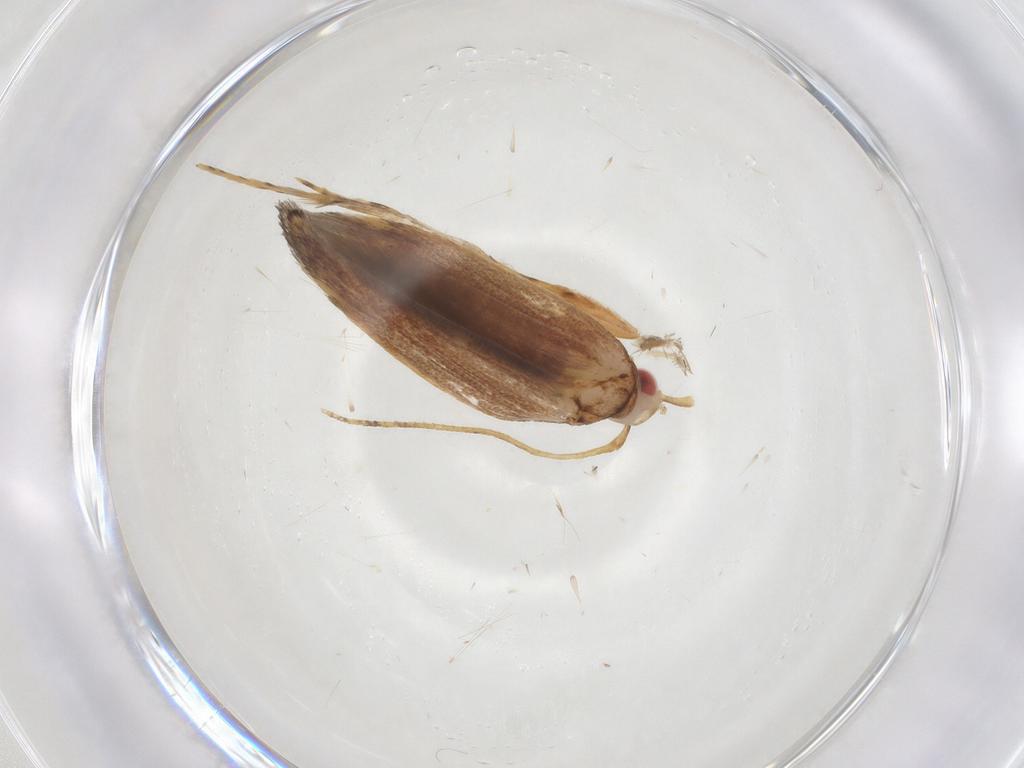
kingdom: Animalia
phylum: Arthropoda
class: Insecta
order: Lepidoptera
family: Cosmopterigidae
